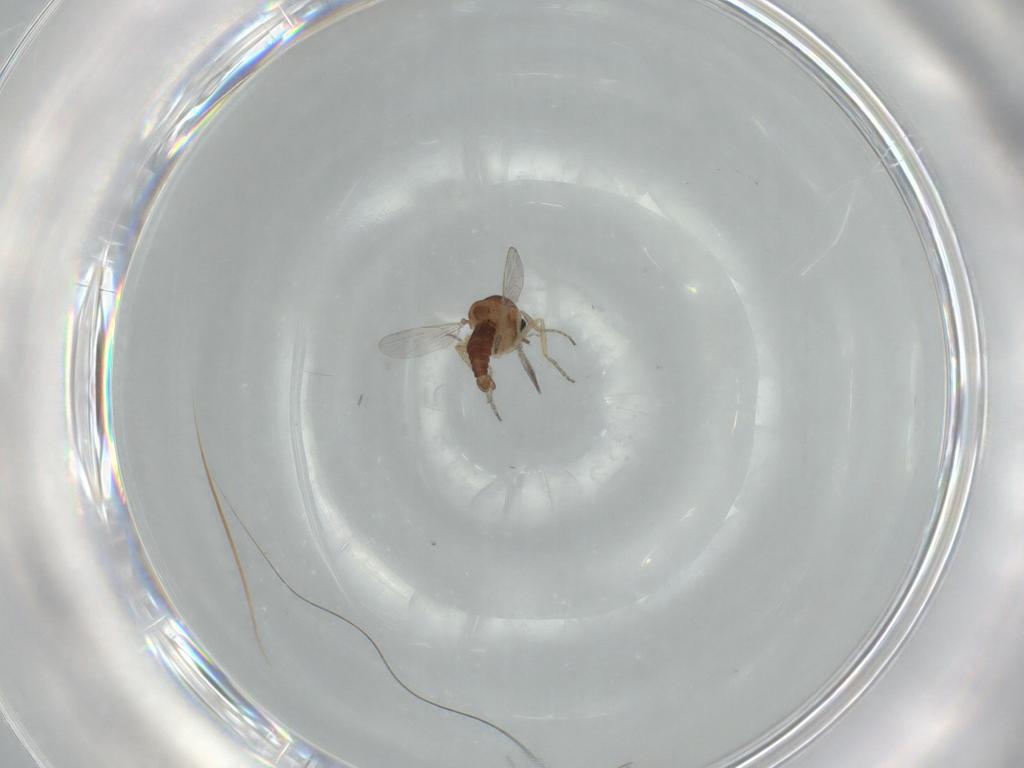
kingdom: Animalia
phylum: Arthropoda
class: Insecta
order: Diptera
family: Ceratopogonidae
